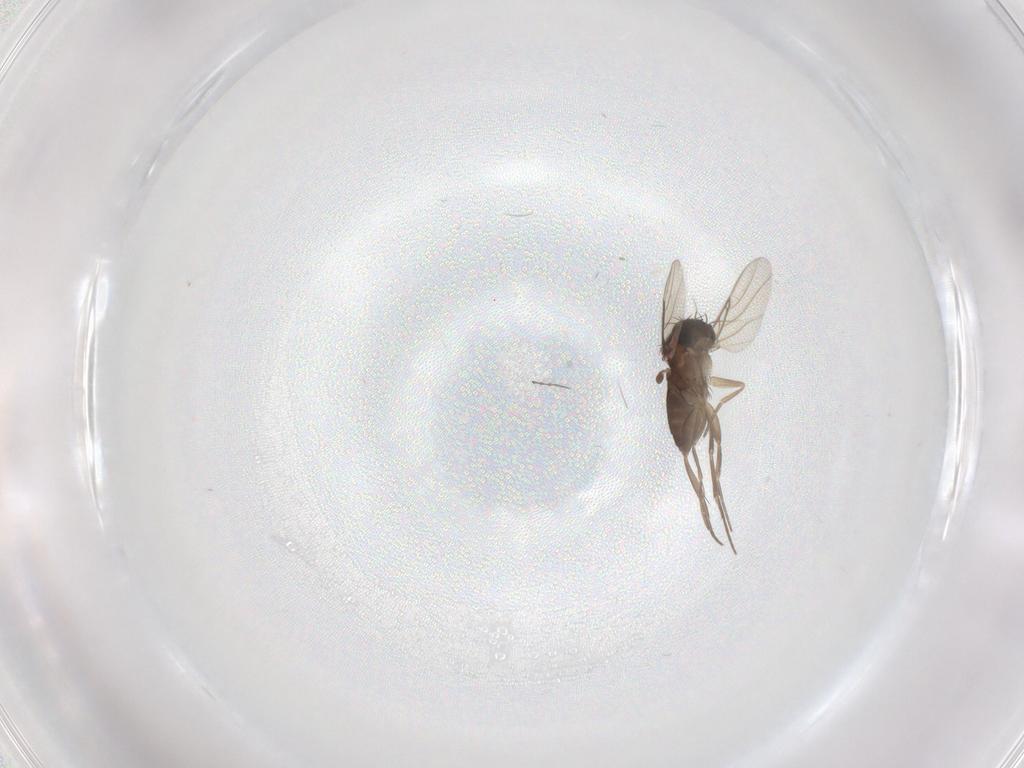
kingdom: Animalia
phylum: Arthropoda
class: Insecta
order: Diptera
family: Phoridae
